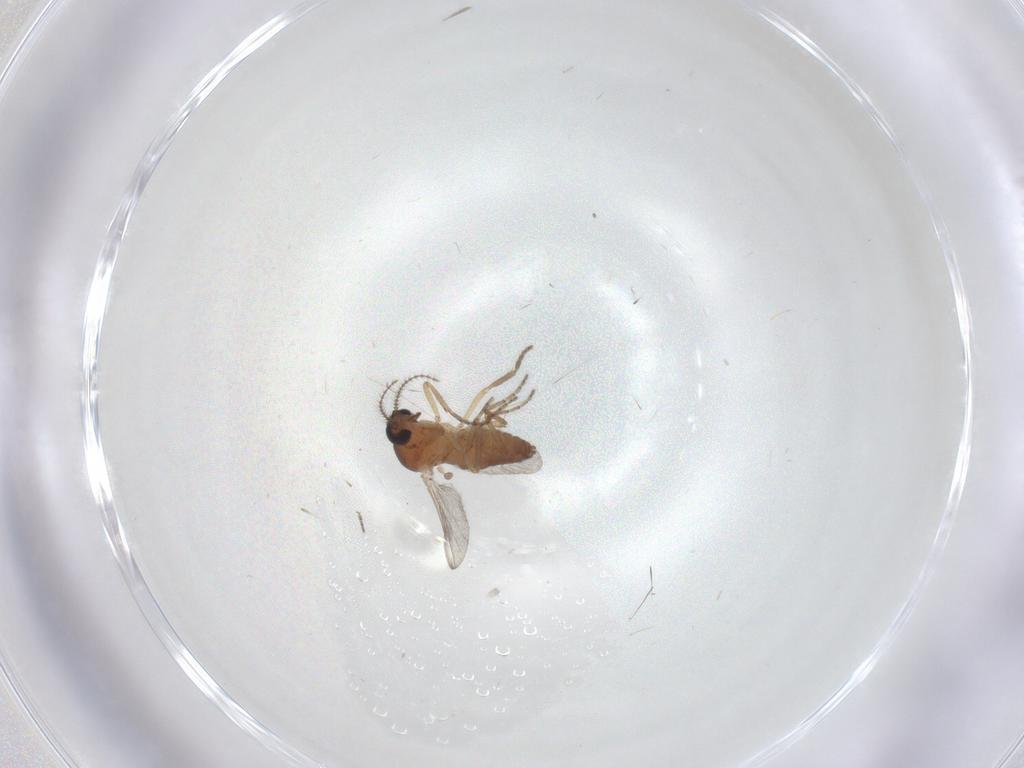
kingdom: Animalia
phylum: Arthropoda
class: Insecta
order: Diptera
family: Ceratopogonidae
